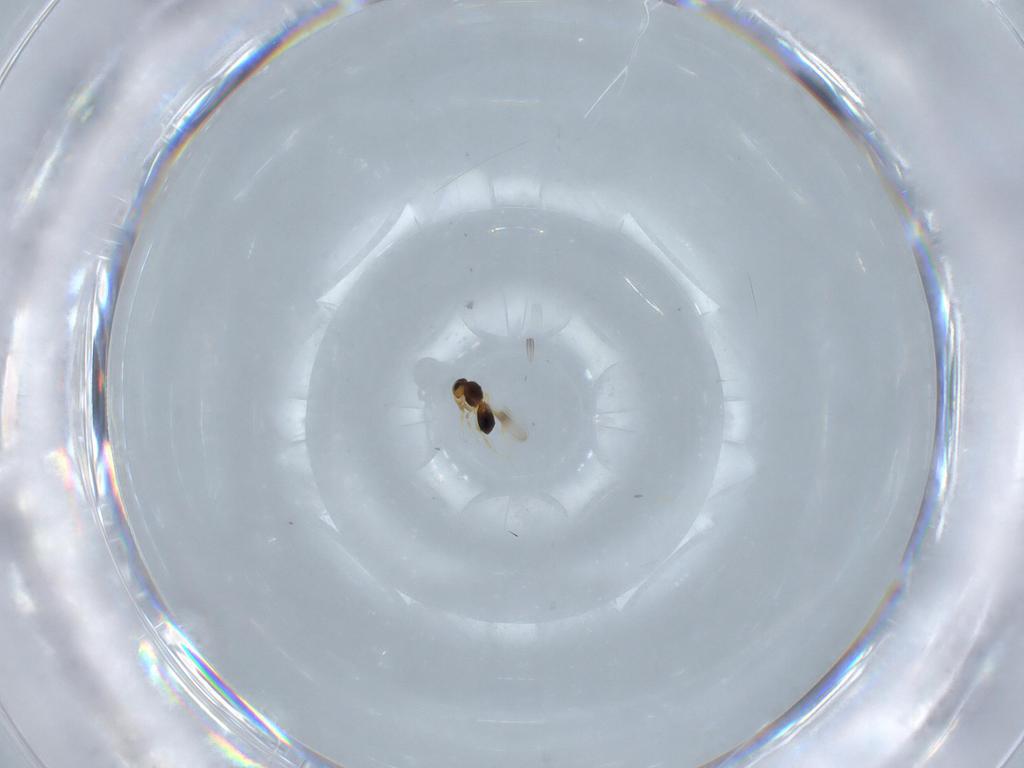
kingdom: Animalia
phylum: Arthropoda
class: Insecta
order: Hymenoptera
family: Platygastridae
